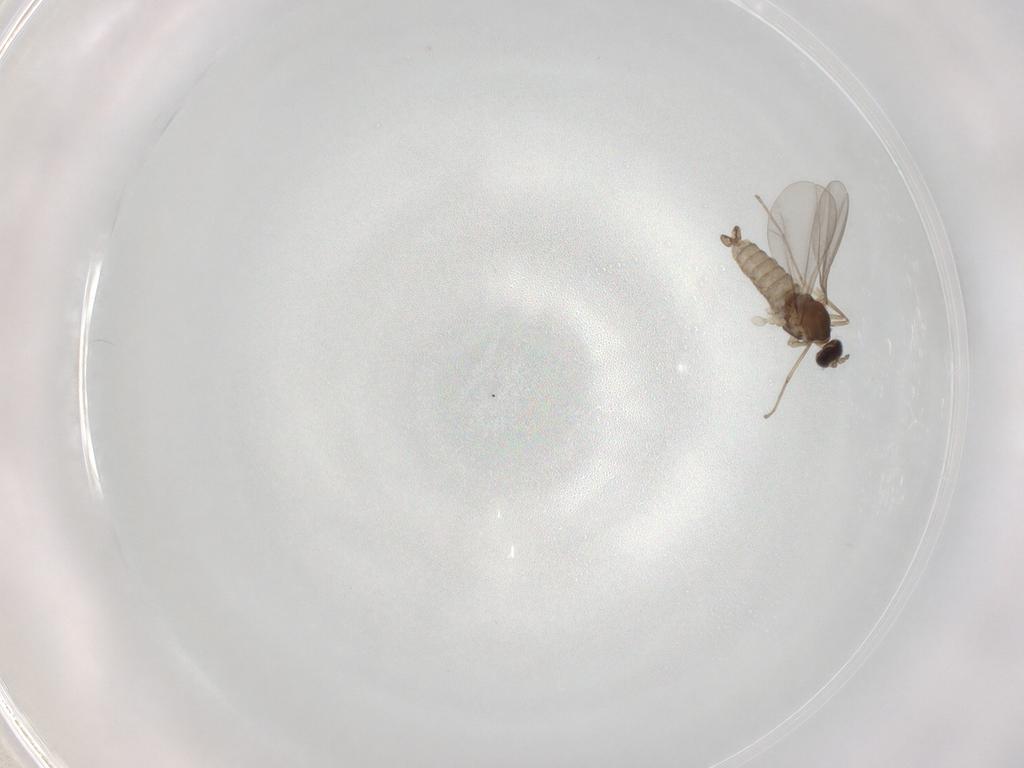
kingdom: Animalia
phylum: Arthropoda
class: Insecta
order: Diptera
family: Cecidomyiidae
